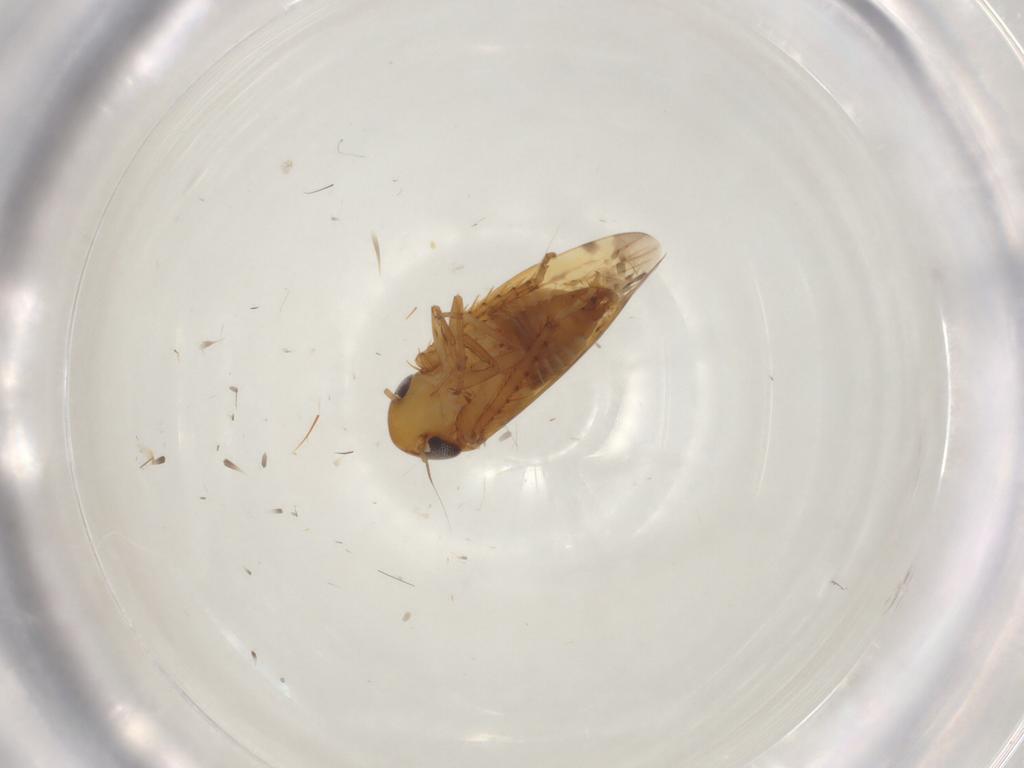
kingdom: Animalia
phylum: Arthropoda
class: Insecta
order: Hemiptera
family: Cicadellidae
